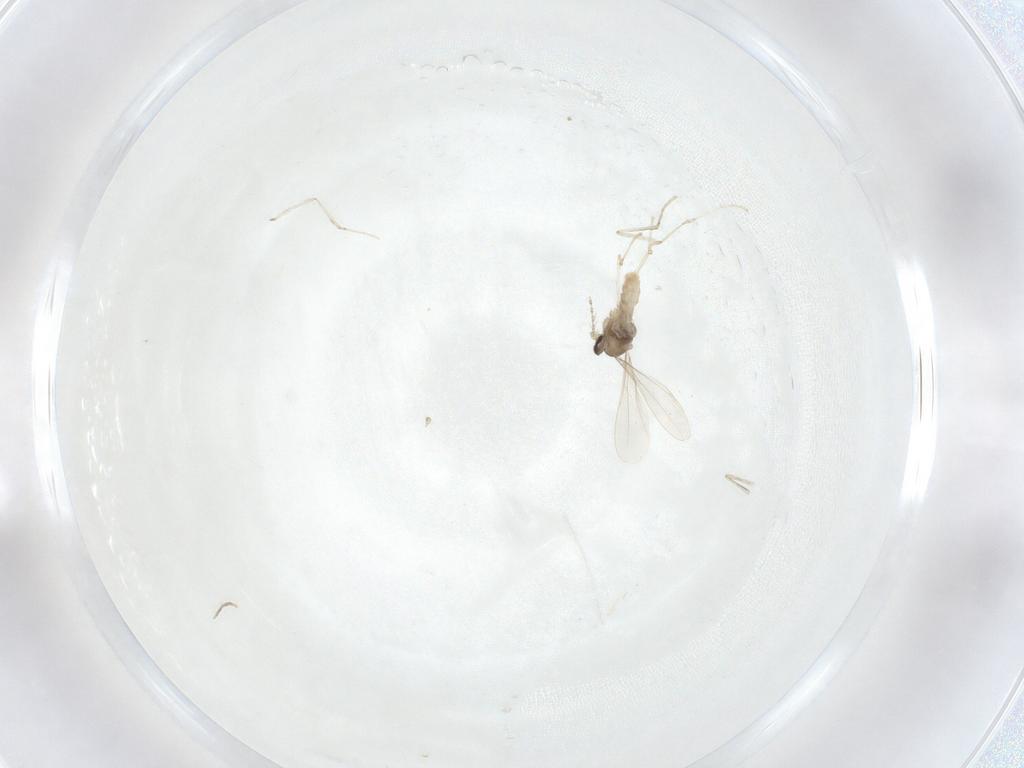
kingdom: Animalia
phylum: Arthropoda
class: Insecta
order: Diptera
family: Cecidomyiidae
